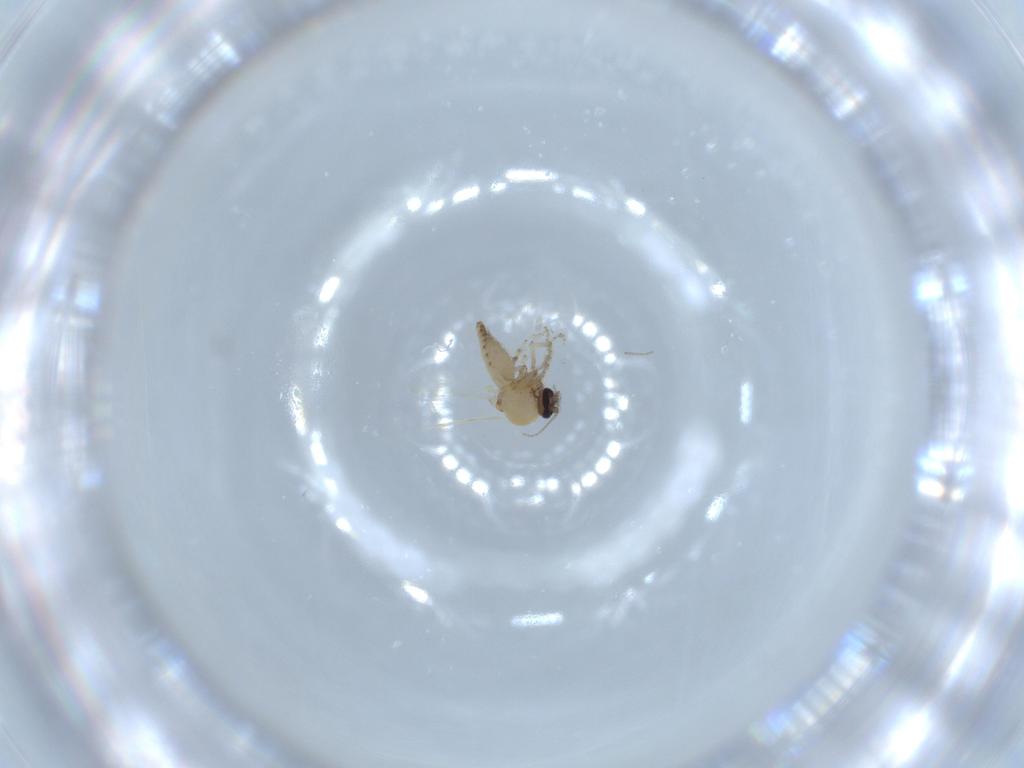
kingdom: Animalia
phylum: Arthropoda
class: Insecta
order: Diptera
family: Ceratopogonidae
